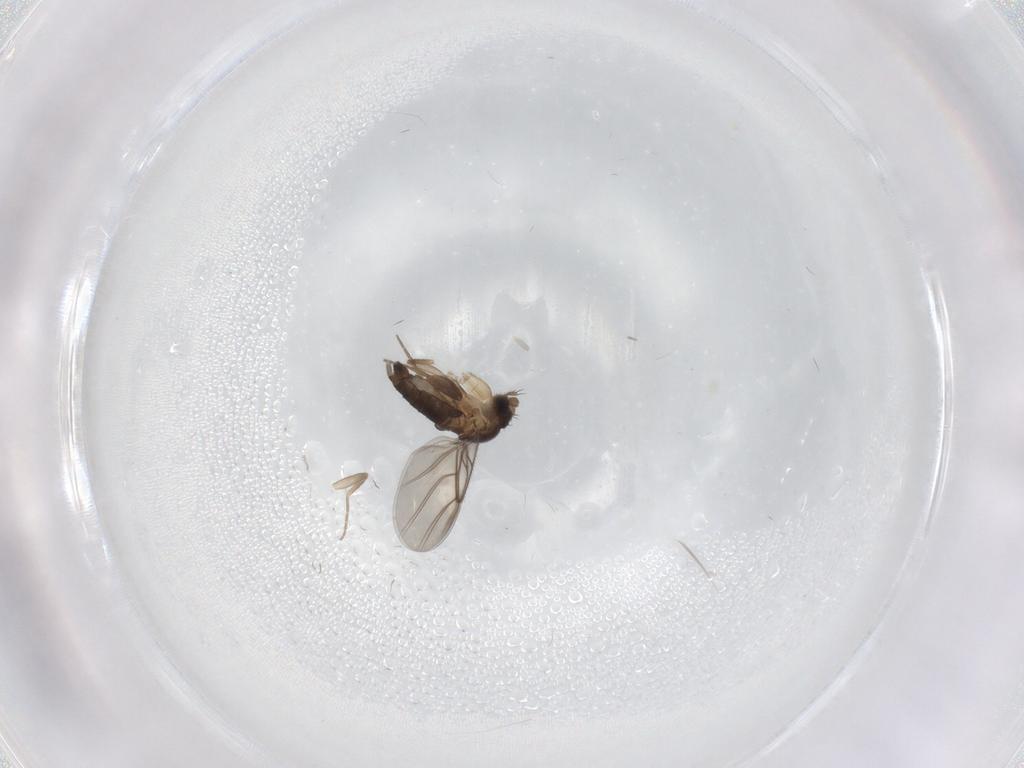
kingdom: Animalia
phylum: Arthropoda
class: Insecta
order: Diptera
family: Phoridae
